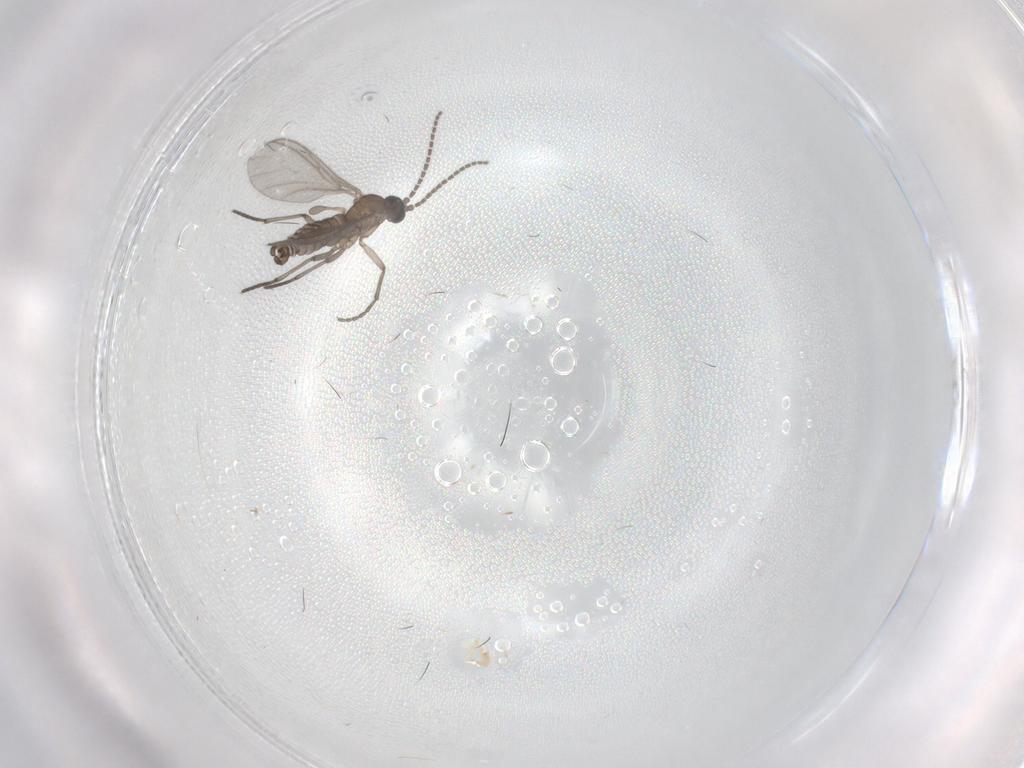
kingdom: Animalia
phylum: Arthropoda
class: Insecta
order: Diptera
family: Sciaridae
